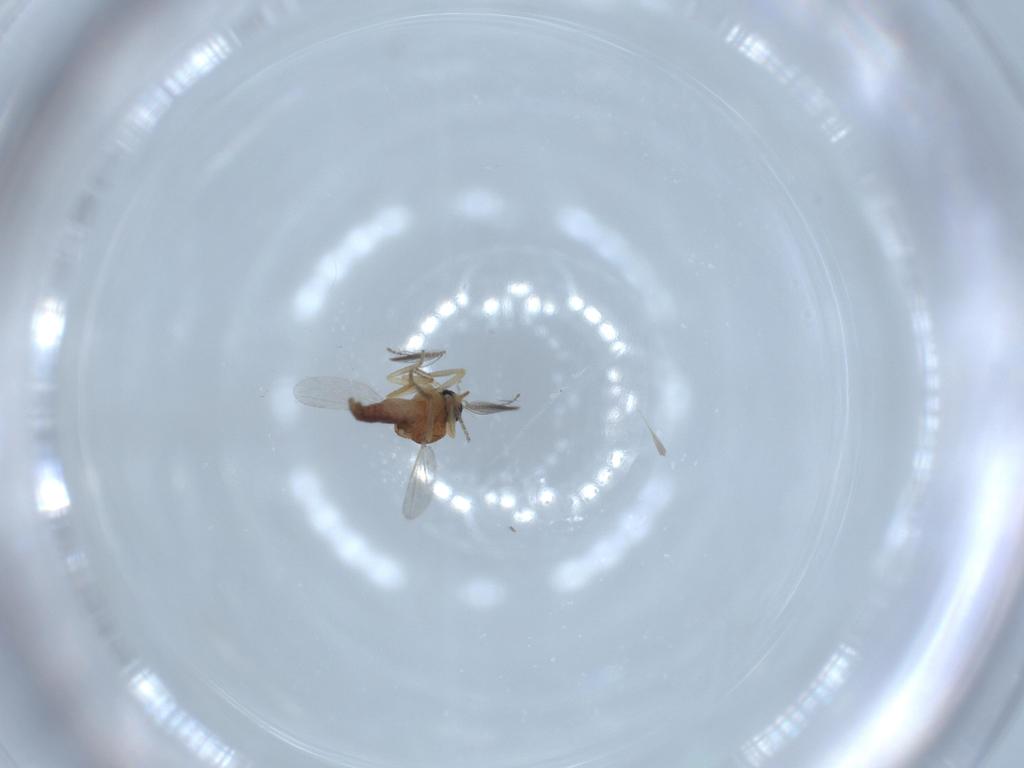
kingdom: Animalia
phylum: Arthropoda
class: Insecta
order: Diptera
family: Ceratopogonidae
